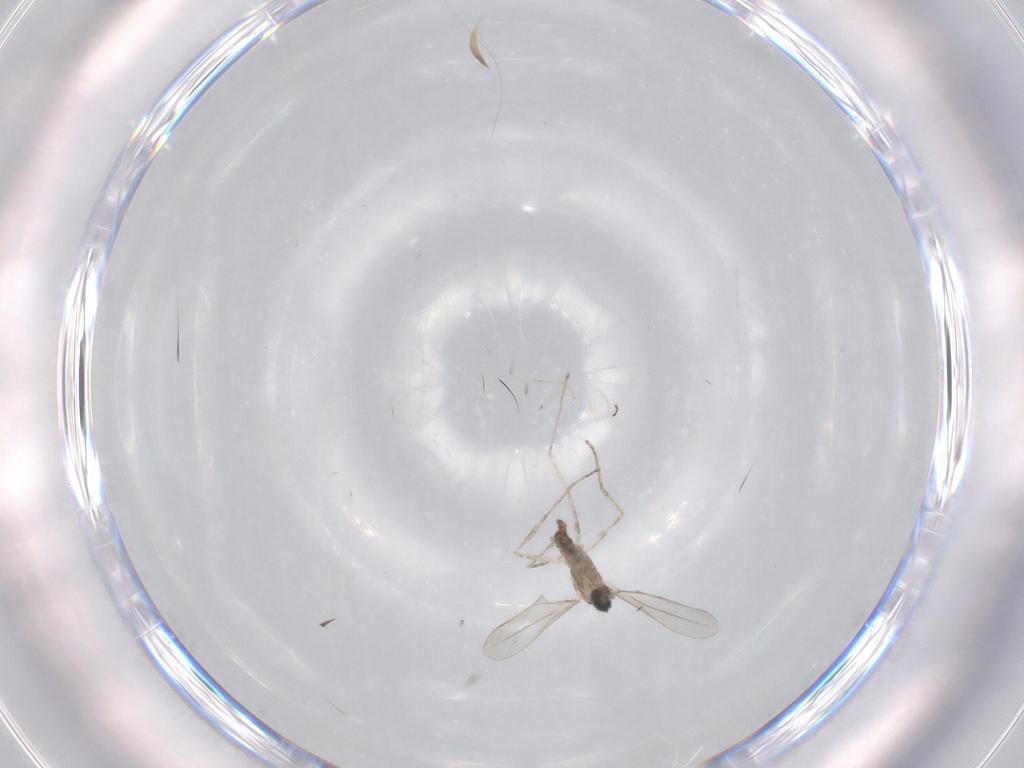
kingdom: Animalia
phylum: Arthropoda
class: Insecta
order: Diptera
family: Cecidomyiidae
